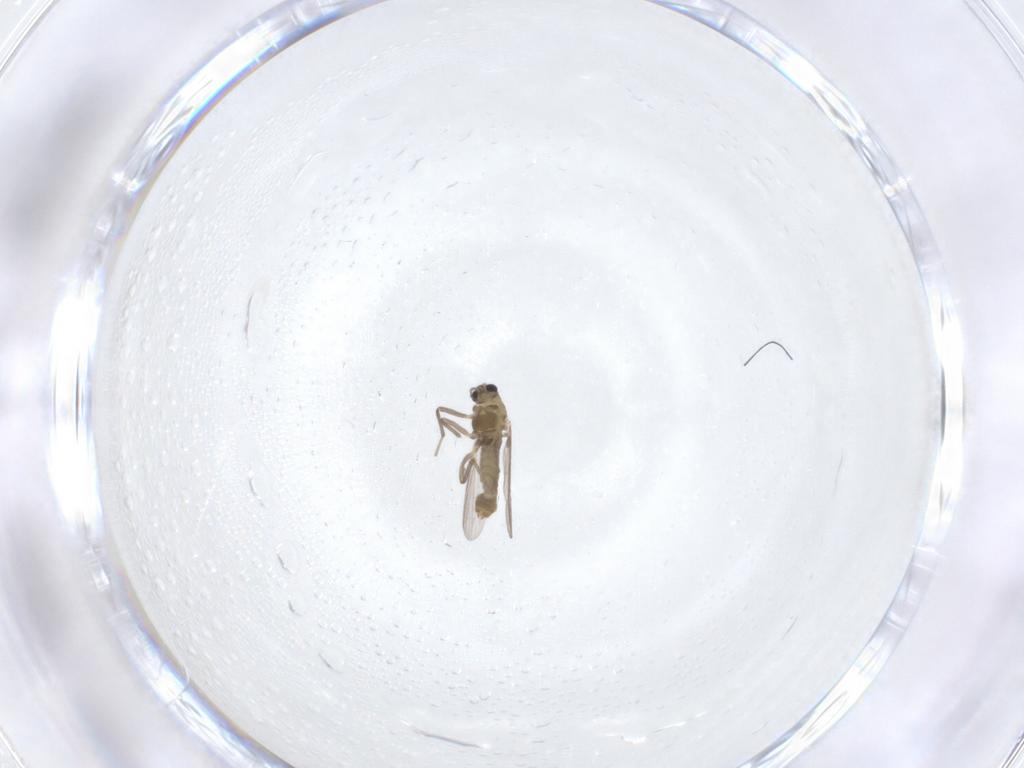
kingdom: Animalia
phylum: Arthropoda
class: Insecta
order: Diptera
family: Chironomidae
